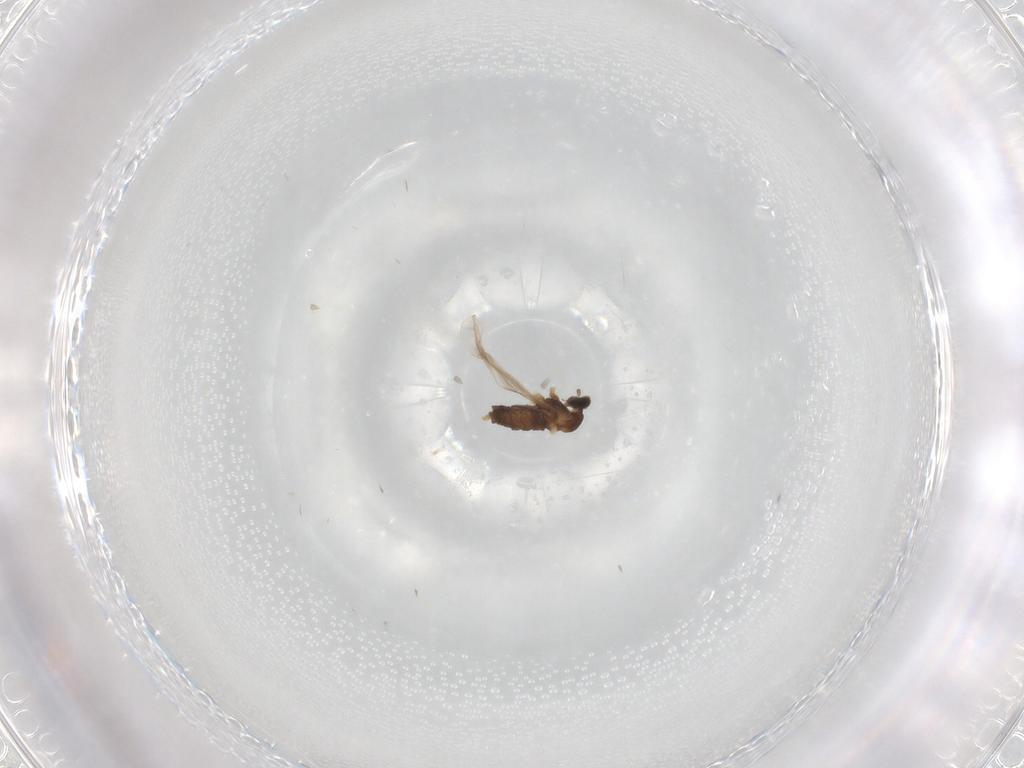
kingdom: Animalia
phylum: Arthropoda
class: Insecta
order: Diptera
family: Cecidomyiidae
